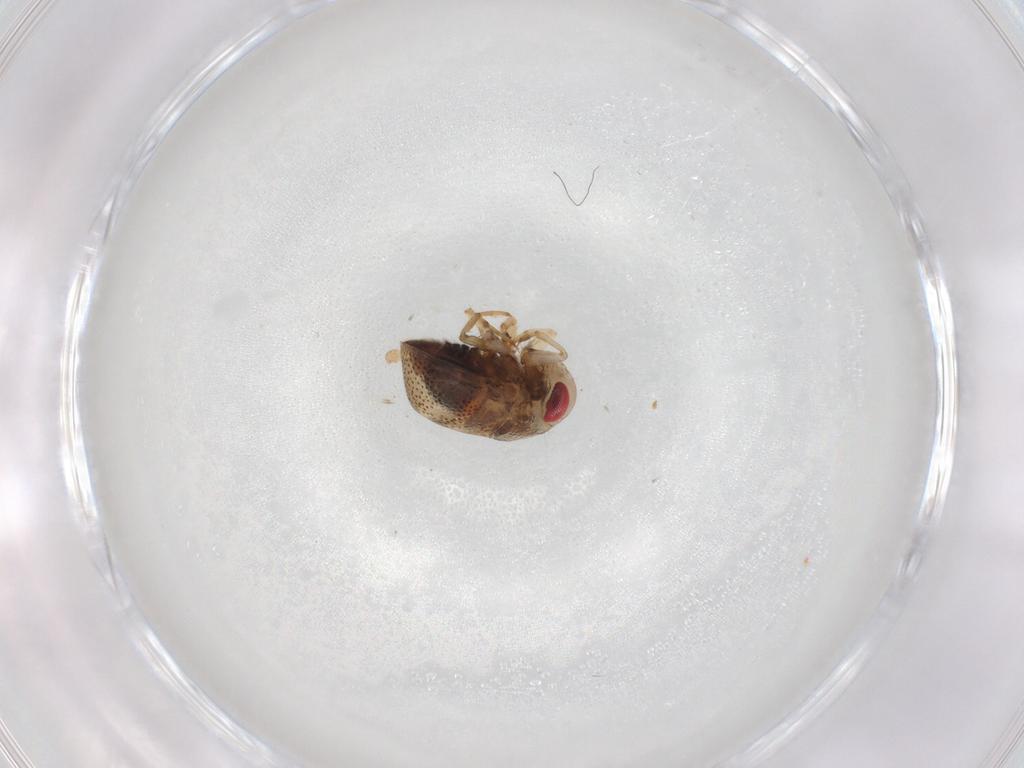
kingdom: Animalia
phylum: Arthropoda
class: Insecta
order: Hemiptera
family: Pleidae
